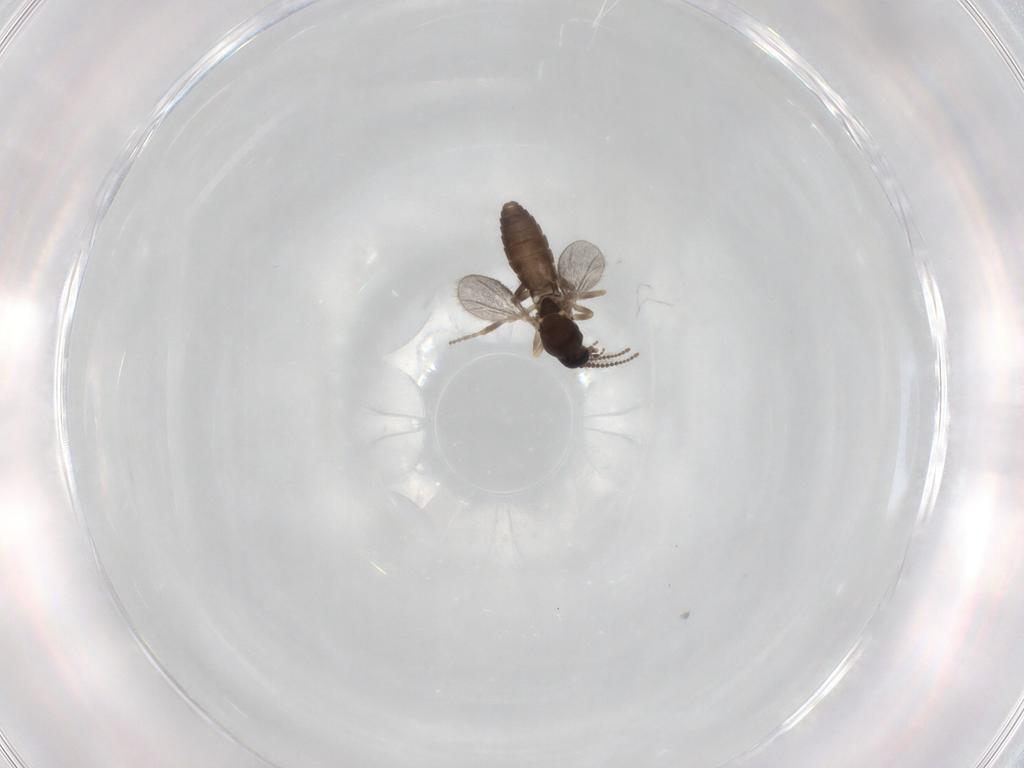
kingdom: Animalia
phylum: Arthropoda
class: Insecta
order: Diptera
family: Ceratopogonidae
